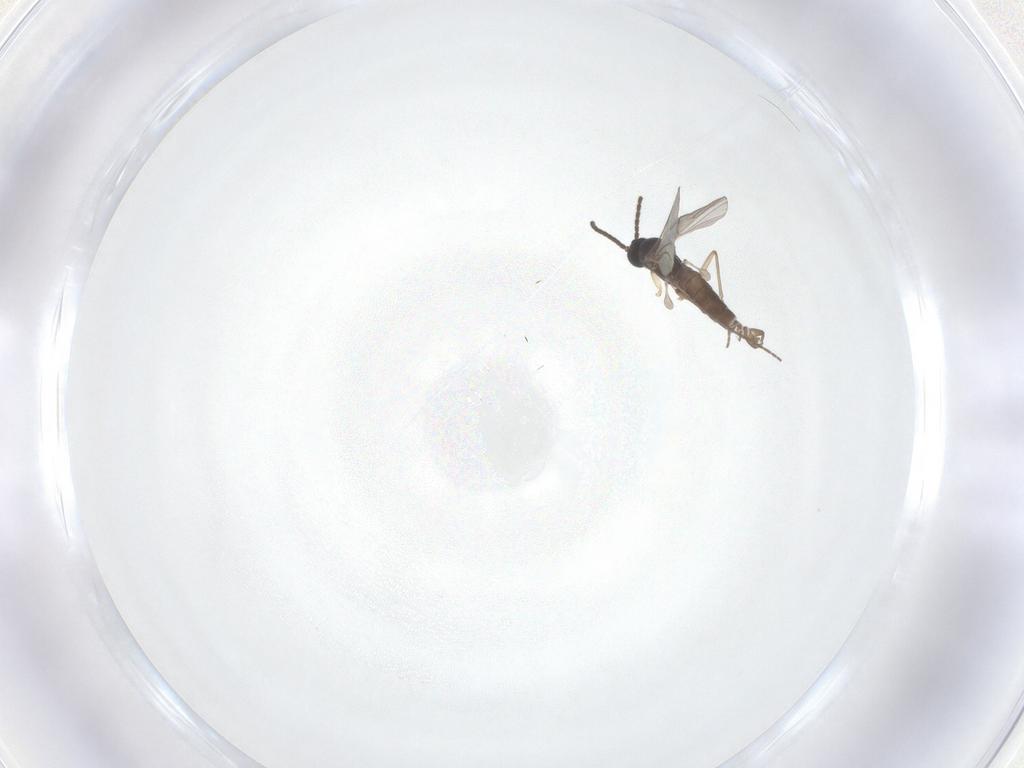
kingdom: Animalia
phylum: Arthropoda
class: Insecta
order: Diptera
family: Sciaridae
